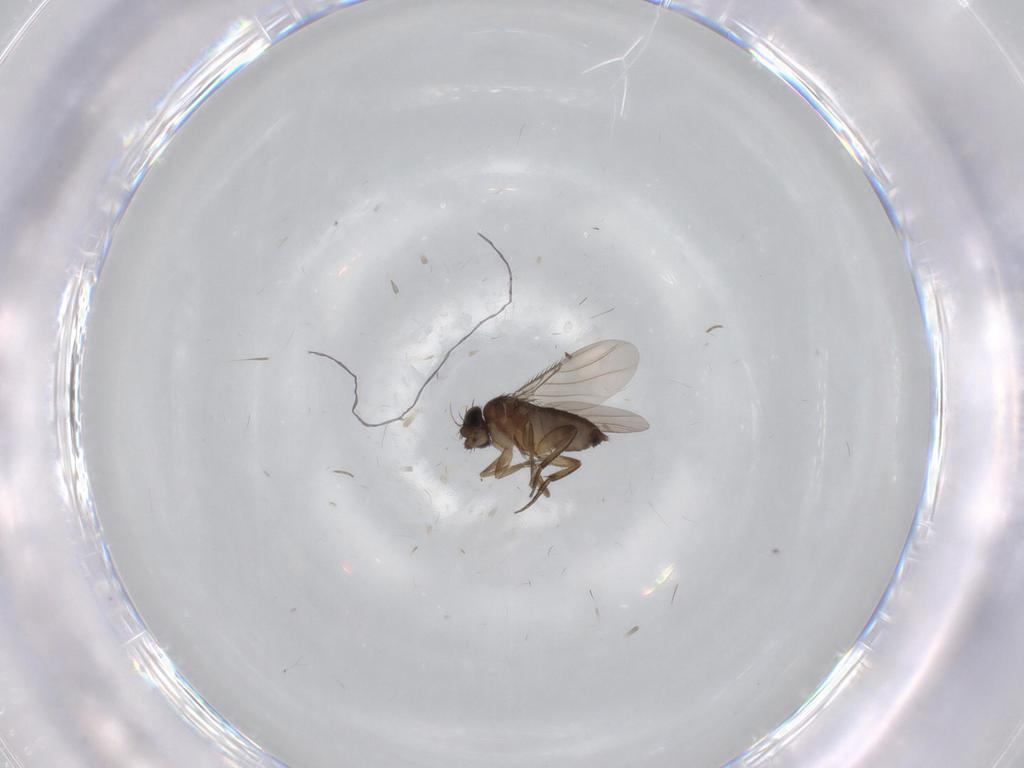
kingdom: Animalia
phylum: Arthropoda
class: Insecta
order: Diptera
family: Phoridae
